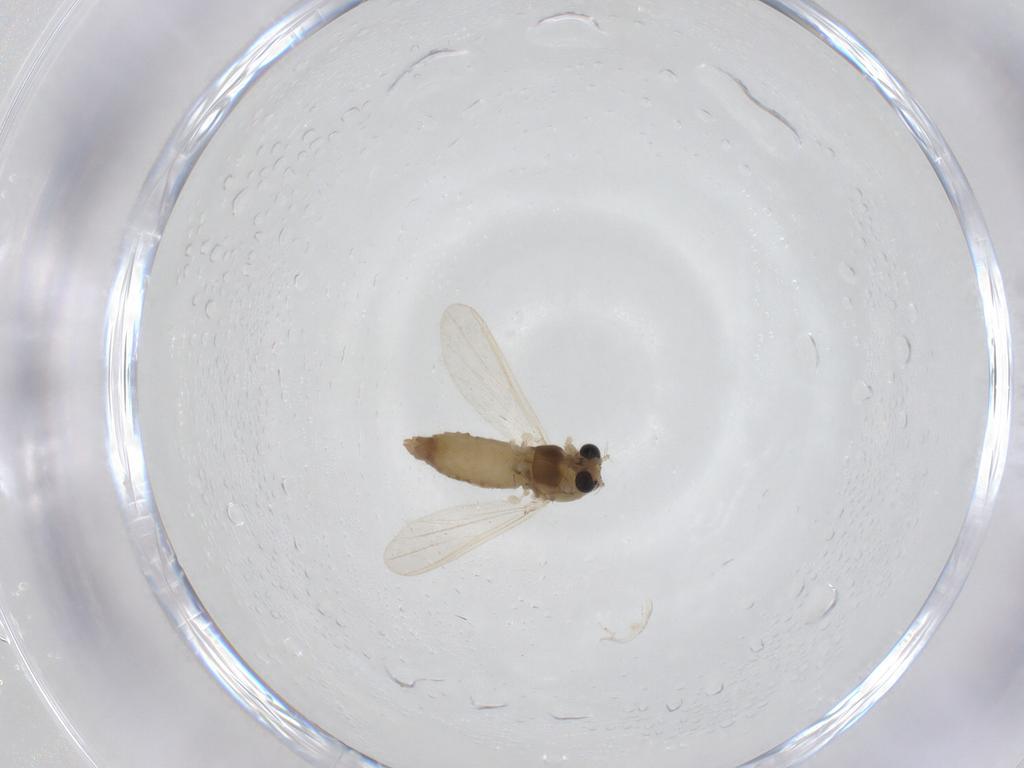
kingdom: Animalia
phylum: Arthropoda
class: Insecta
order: Diptera
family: Chironomidae
